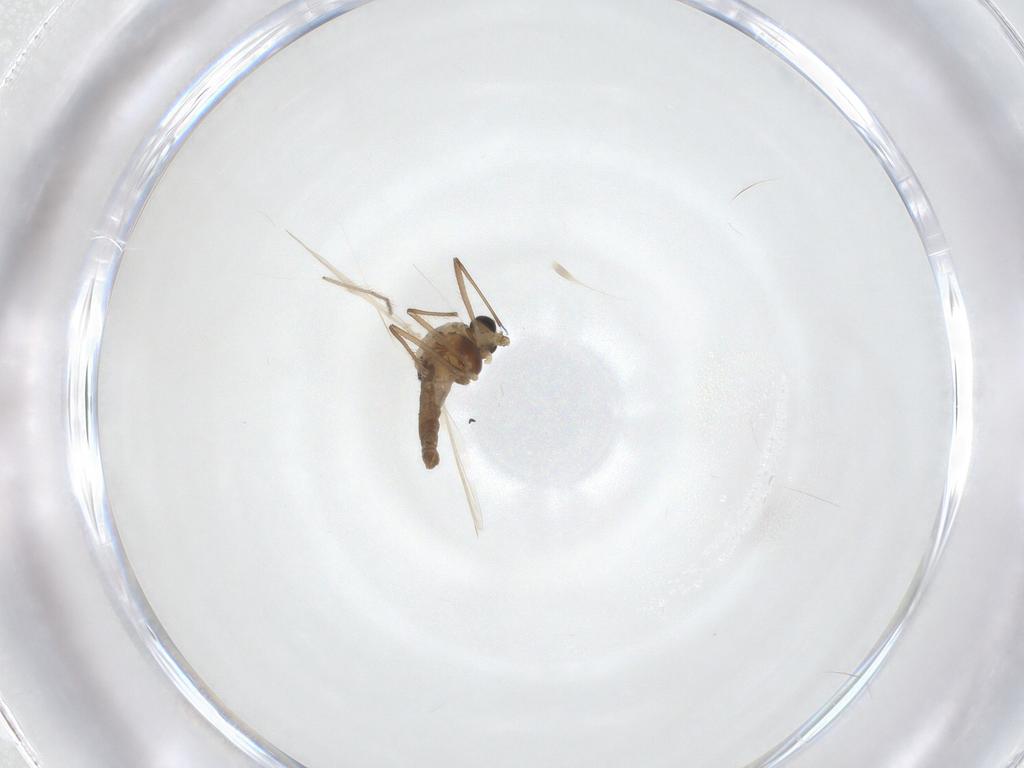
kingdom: Animalia
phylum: Arthropoda
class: Insecta
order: Diptera
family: Chironomidae
